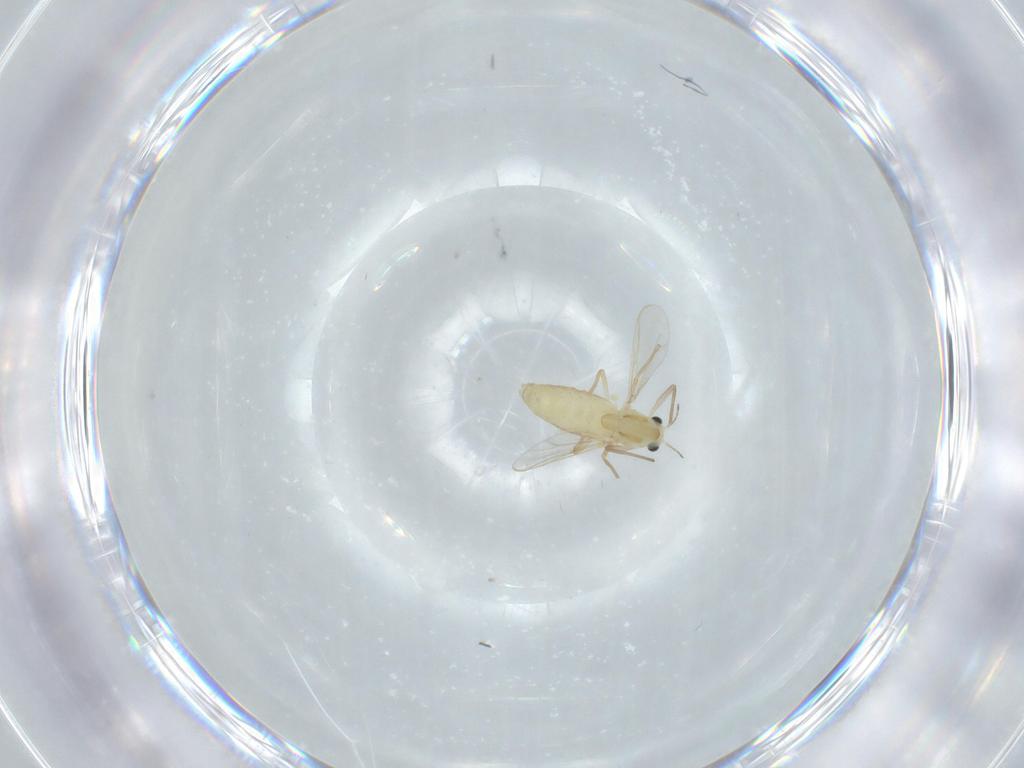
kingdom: Animalia
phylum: Arthropoda
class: Insecta
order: Diptera
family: Chironomidae
